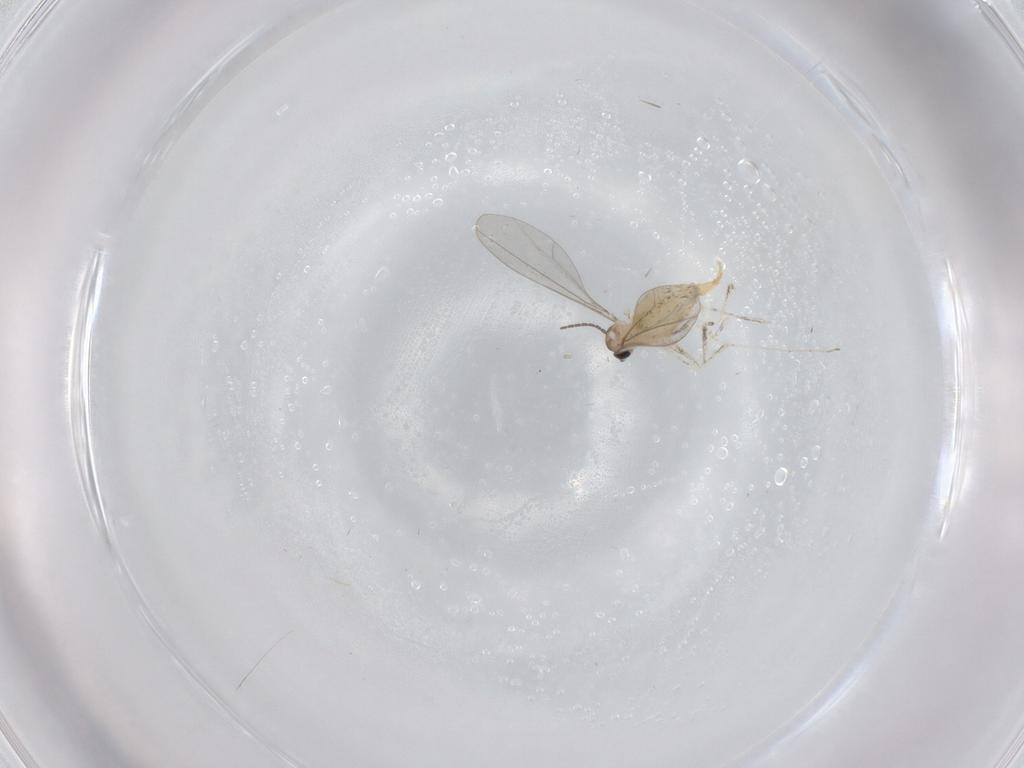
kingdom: Animalia
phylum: Arthropoda
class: Insecta
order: Diptera
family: Cecidomyiidae
